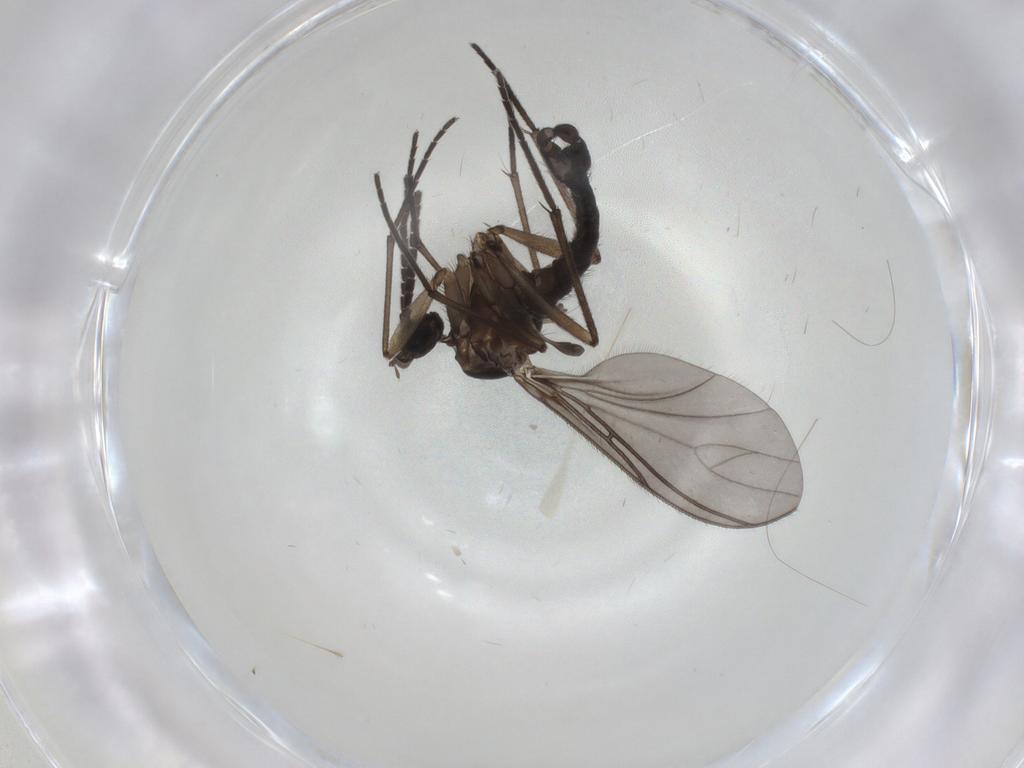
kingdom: Animalia
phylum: Arthropoda
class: Insecta
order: Diptera
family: Sciaridae
